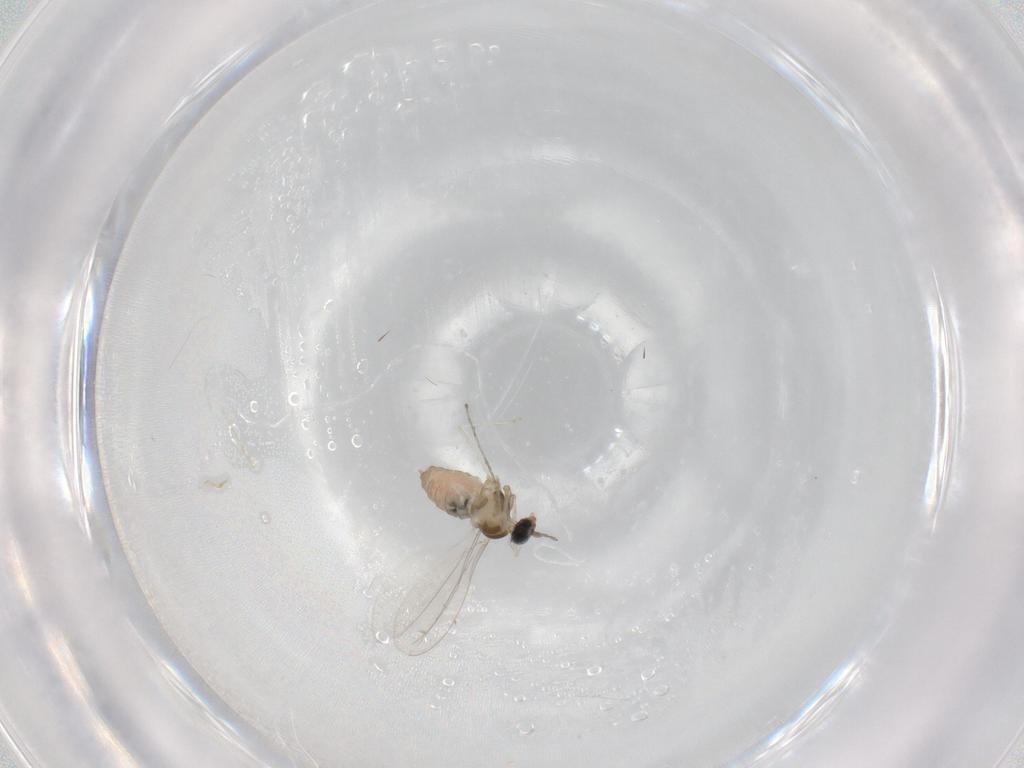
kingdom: Animalia
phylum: Arthropoda
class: Insecta
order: Diptera
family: Cecidomyiidae
